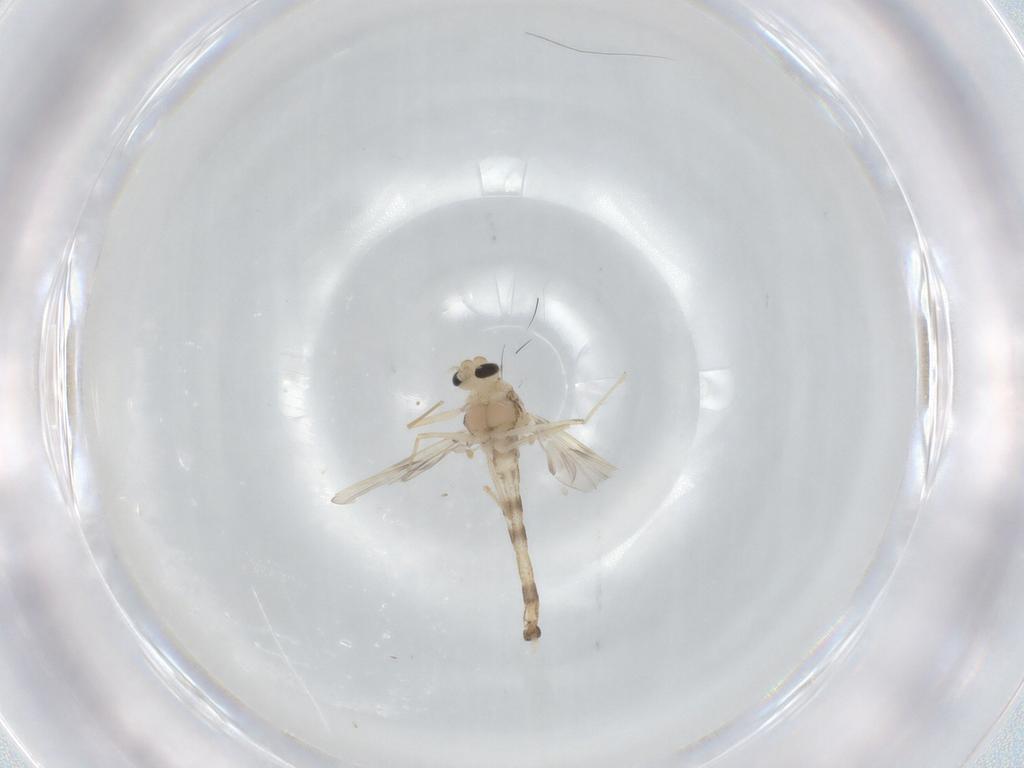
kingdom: Animalia
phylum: Arthropoda
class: Insecta
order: Diptera
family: Chironomidae
